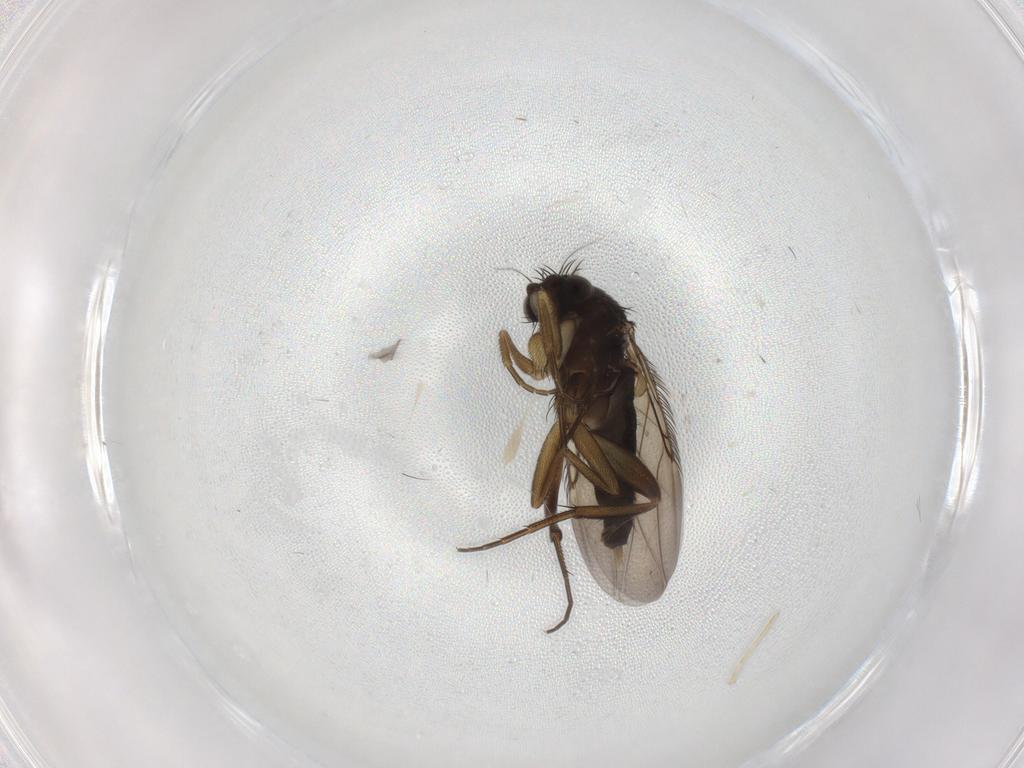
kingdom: Animalia
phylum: Arthropoda
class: Insecta
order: Diptera
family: Phoridae
